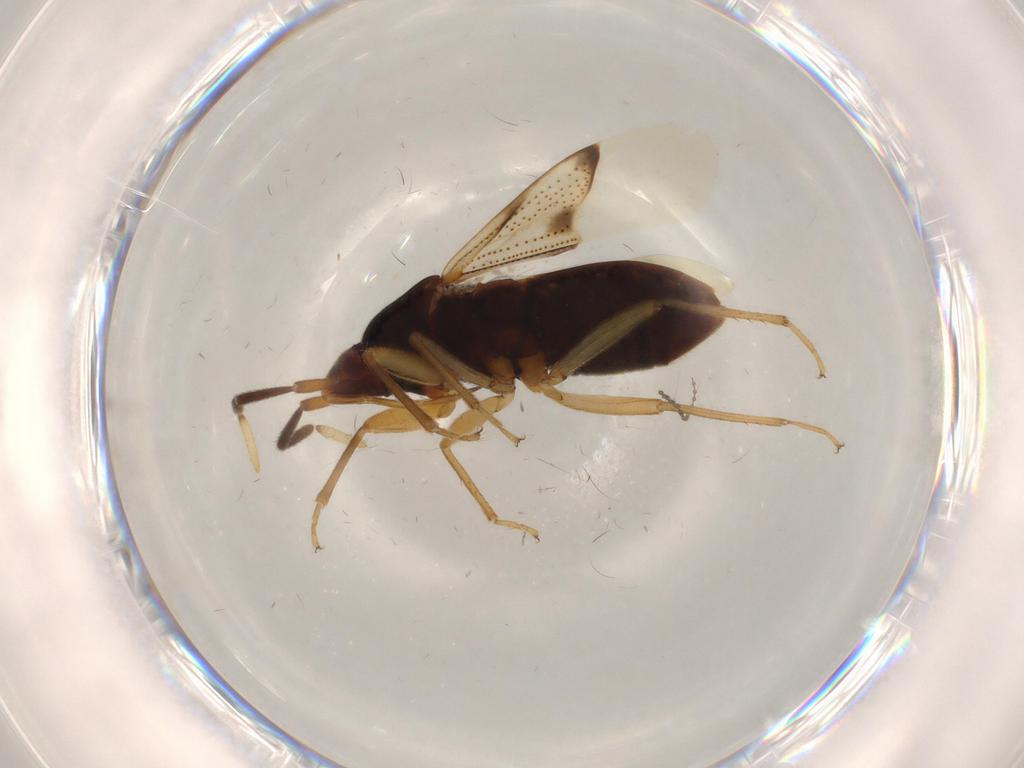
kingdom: Animalia
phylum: Arthropoda
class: Insecta
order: Hemiptera
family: Rhyparochromidae
